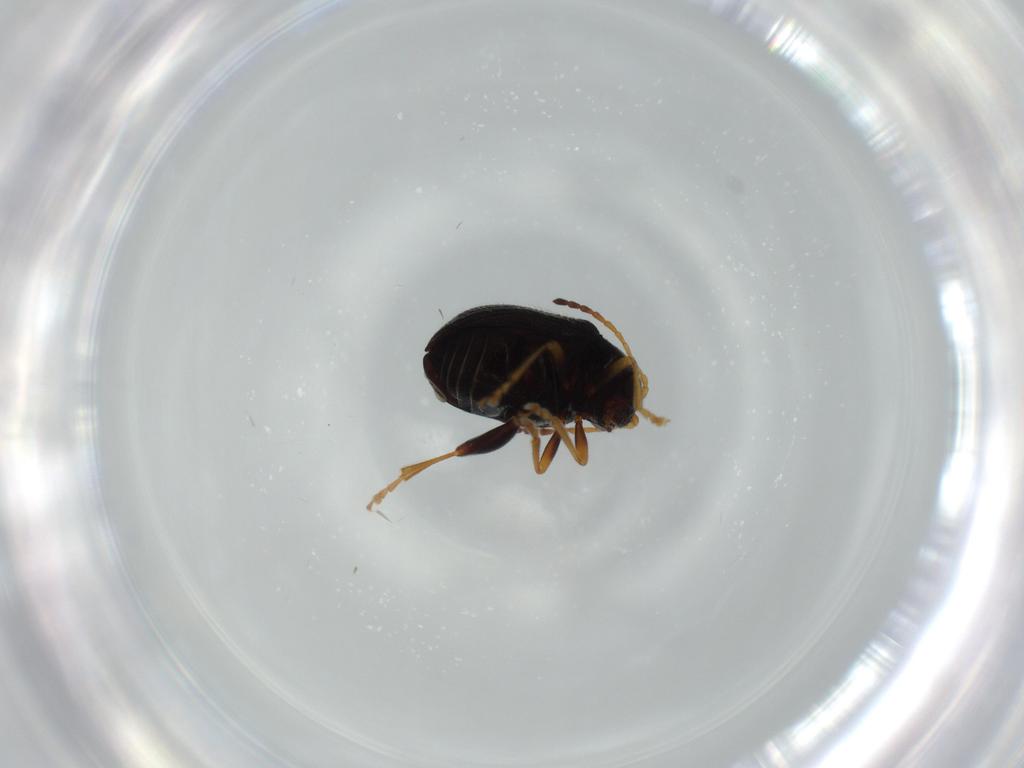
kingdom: Animalia
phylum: Arthropoda
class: Insecta
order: Coleoptera
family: Chrysomelidae
